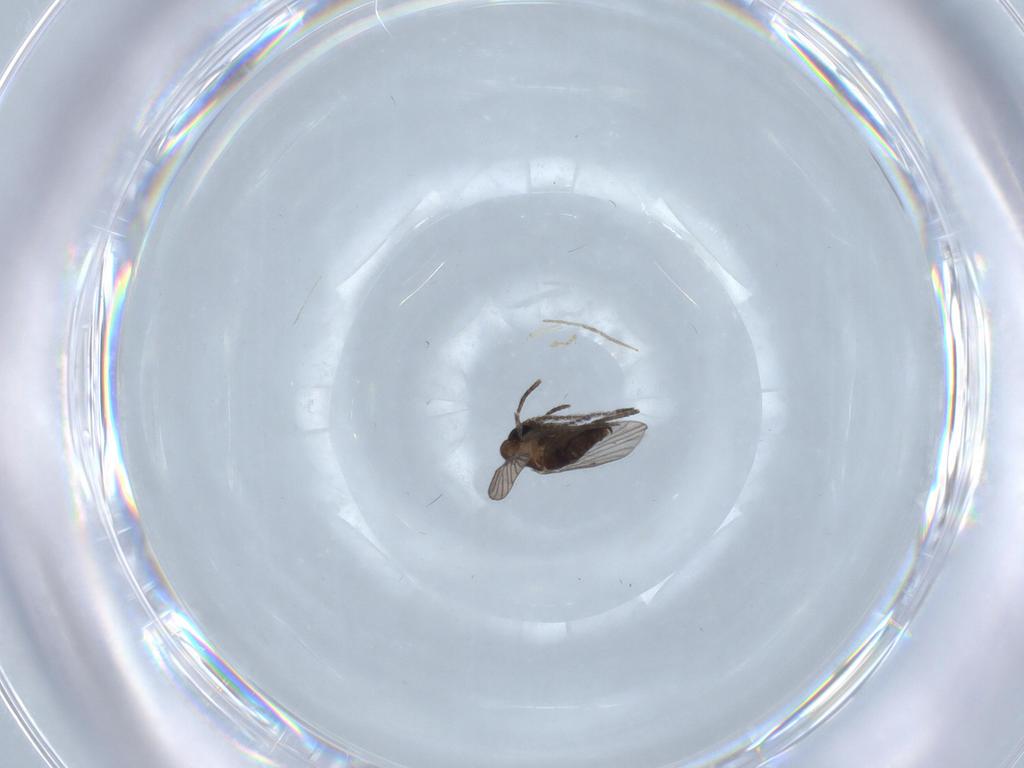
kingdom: Animalia
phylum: Arthropoda
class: Insecta
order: Diptera
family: Chironomidae
